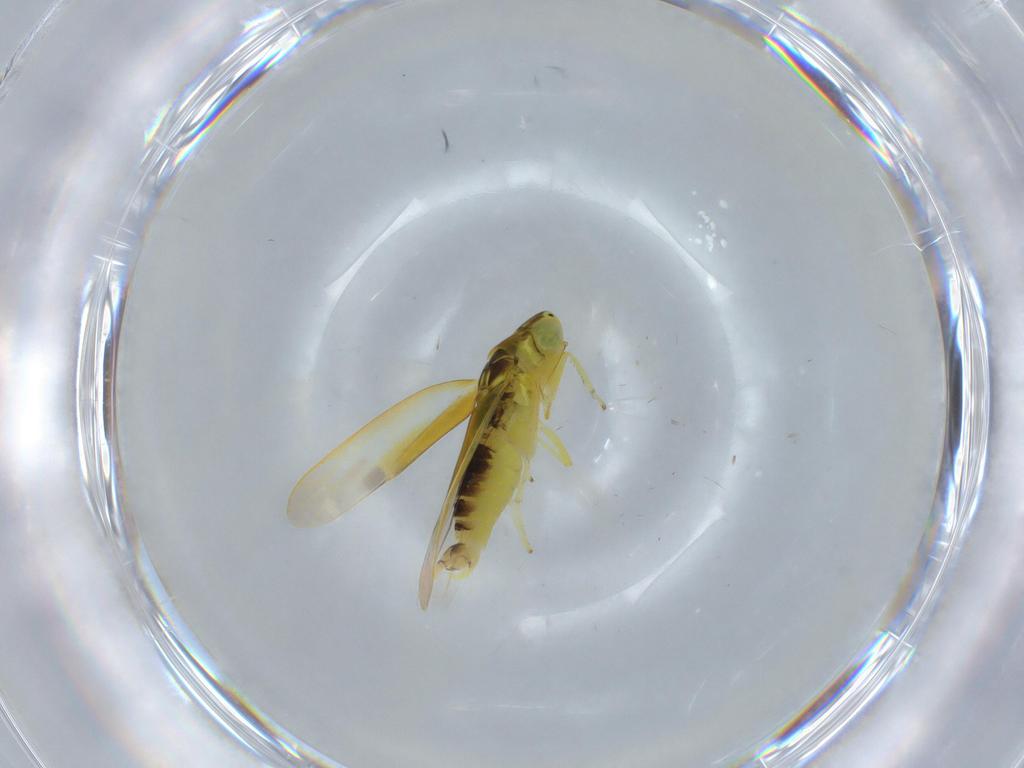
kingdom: Animalia
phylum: Arthropoda
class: Insecta
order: Hemiptera
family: Cicadellidae
